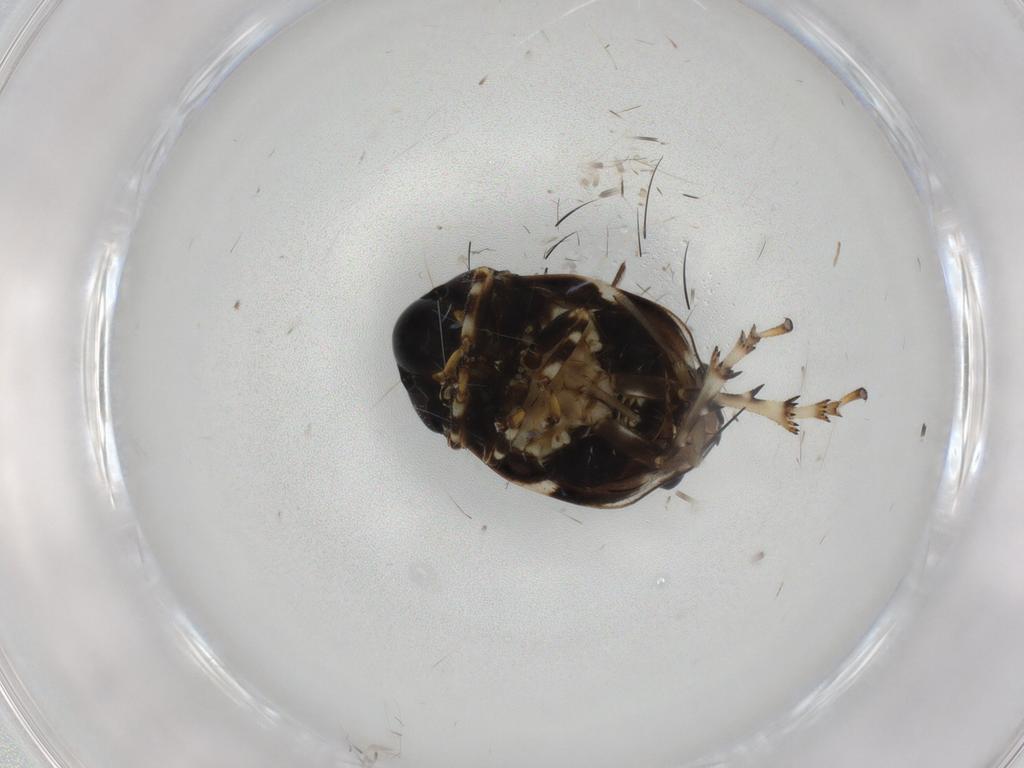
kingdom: Animalia
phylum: Arthropoda
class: Insecta
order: Hemiptera
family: Clastopteridae
